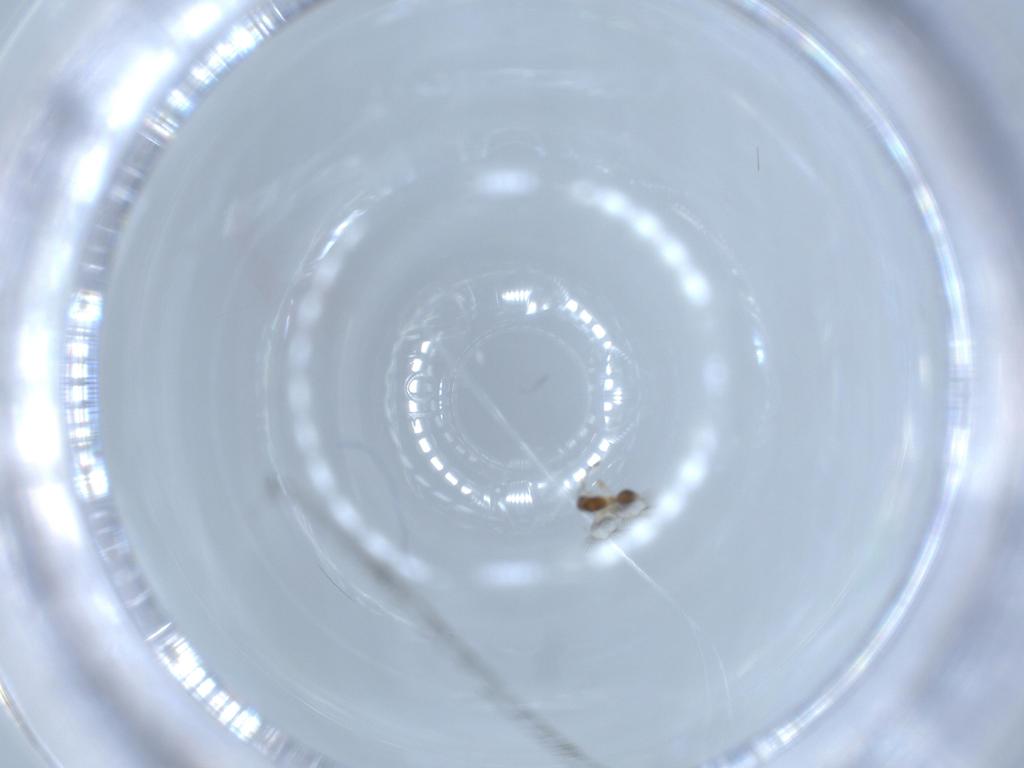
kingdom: Animalia
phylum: Arthropoda
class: Insecta
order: Hymenoptera
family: Mymarommatidae
